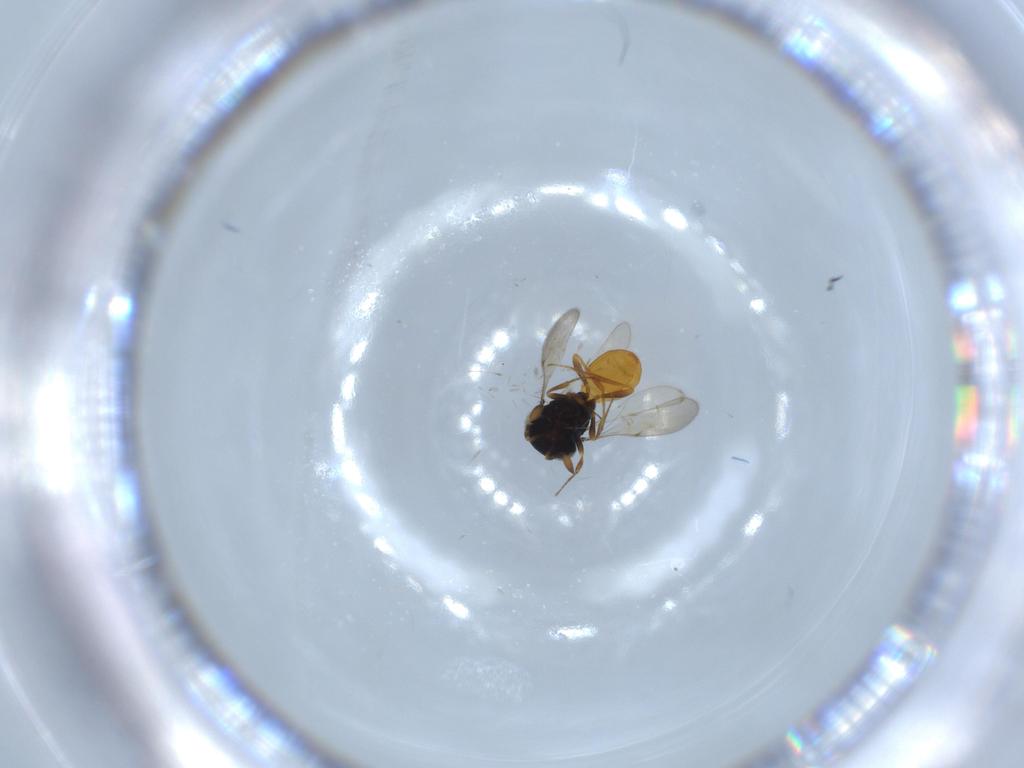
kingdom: Animalia
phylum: Arthropoda
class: Insecta
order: Hymenoptera
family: Scelionidae
